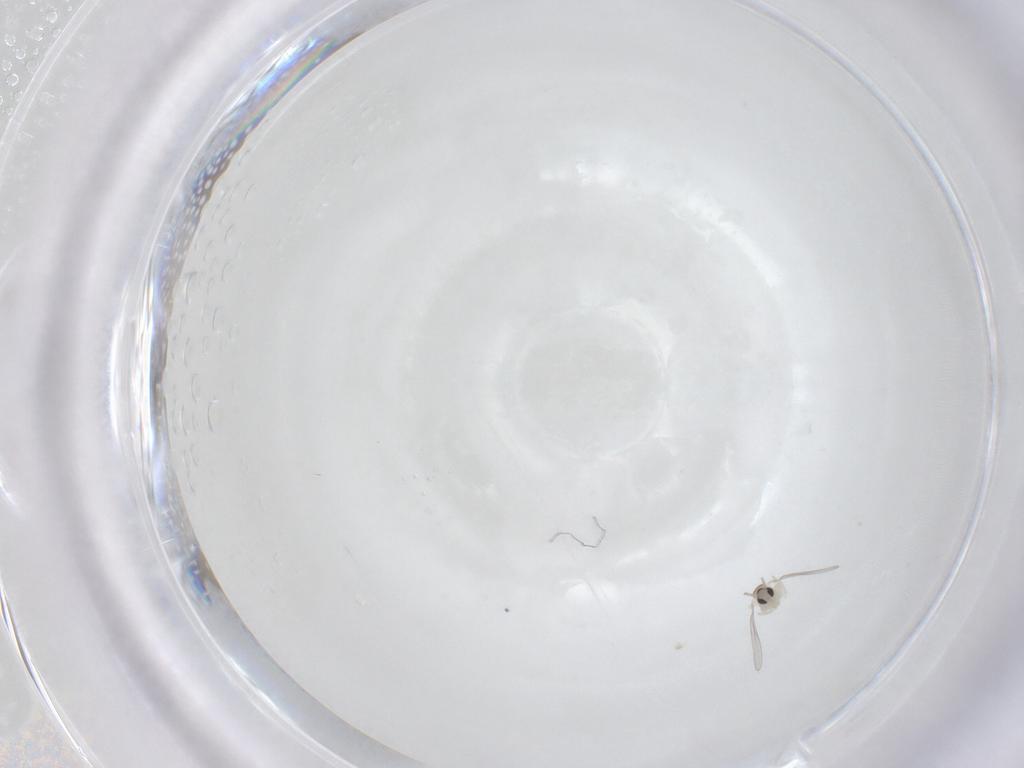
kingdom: Animalia
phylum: Arthropoda
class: Insecta
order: Diptera
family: Cecidomyiidae
